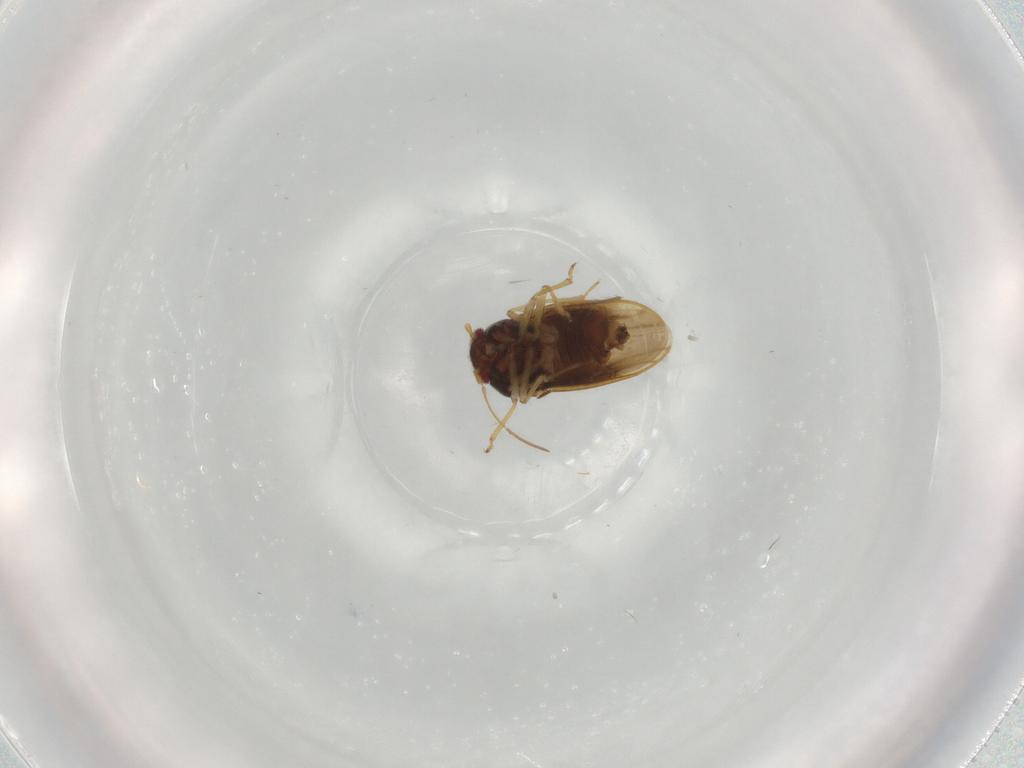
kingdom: Animalia
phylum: Arthropoda
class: Insecta
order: Hemiptera
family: Schizopteridae
